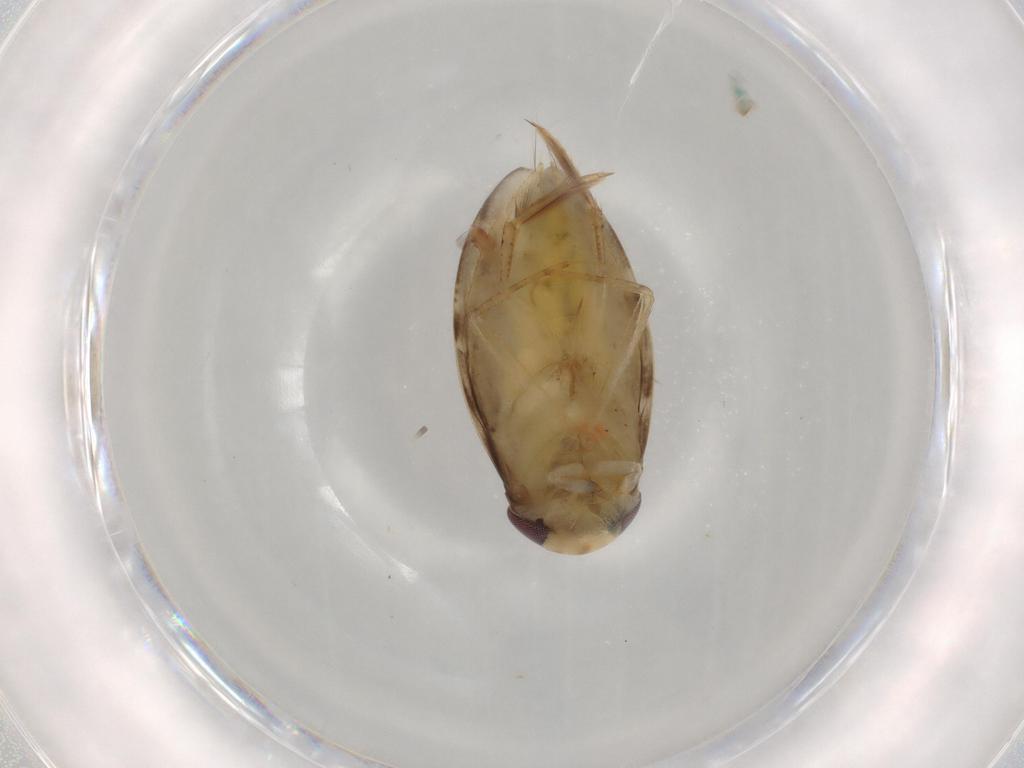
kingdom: Animalia
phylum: Arthropoda
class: Insecta
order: Hemiptera
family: Corixidae
